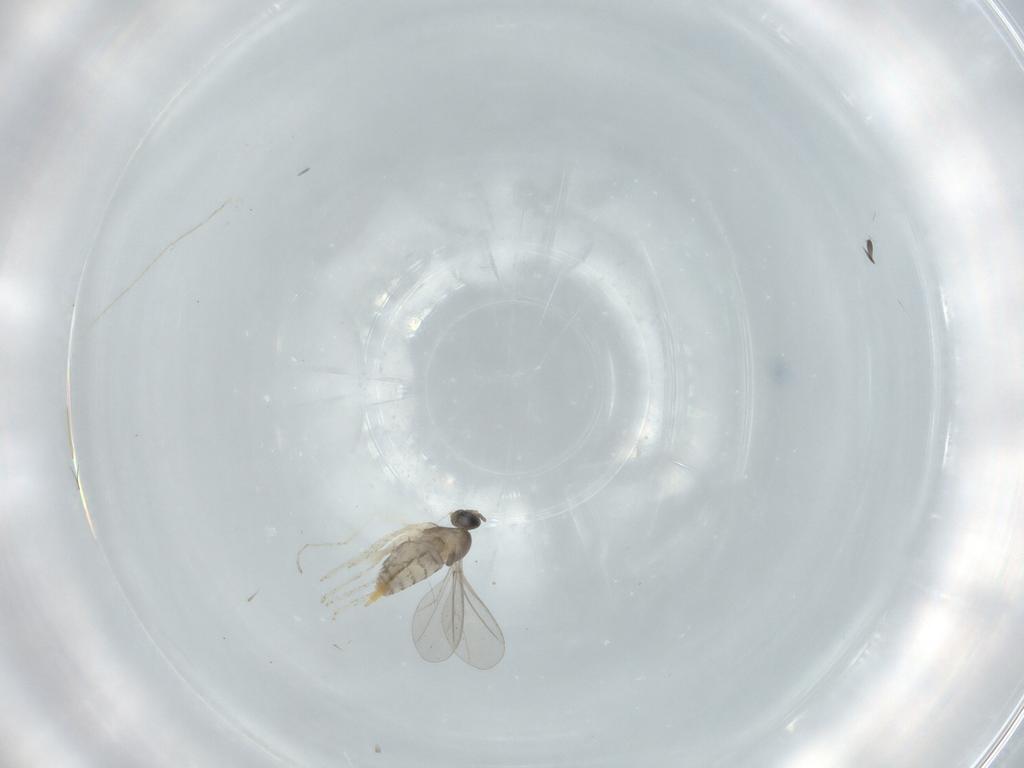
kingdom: Animalia
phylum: Arthropoda
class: Insecta
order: Diptera
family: Cecidomyiidae
